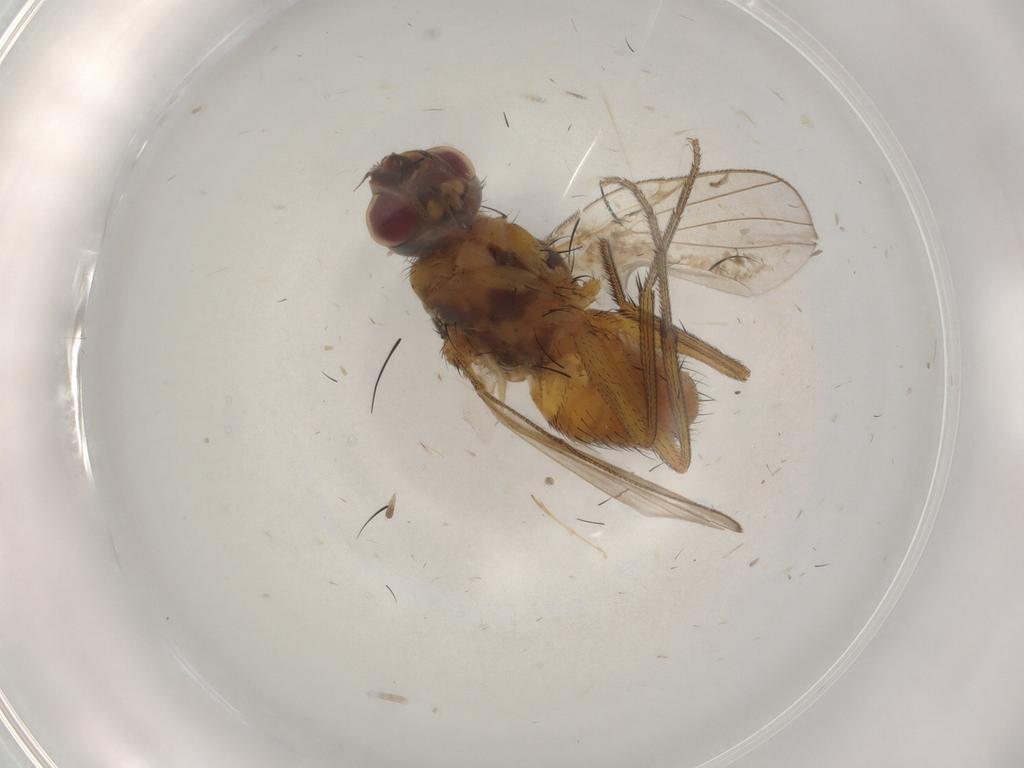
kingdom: Animalia
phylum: Arthropoda
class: Insecta
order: Diptera
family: Muscidae
